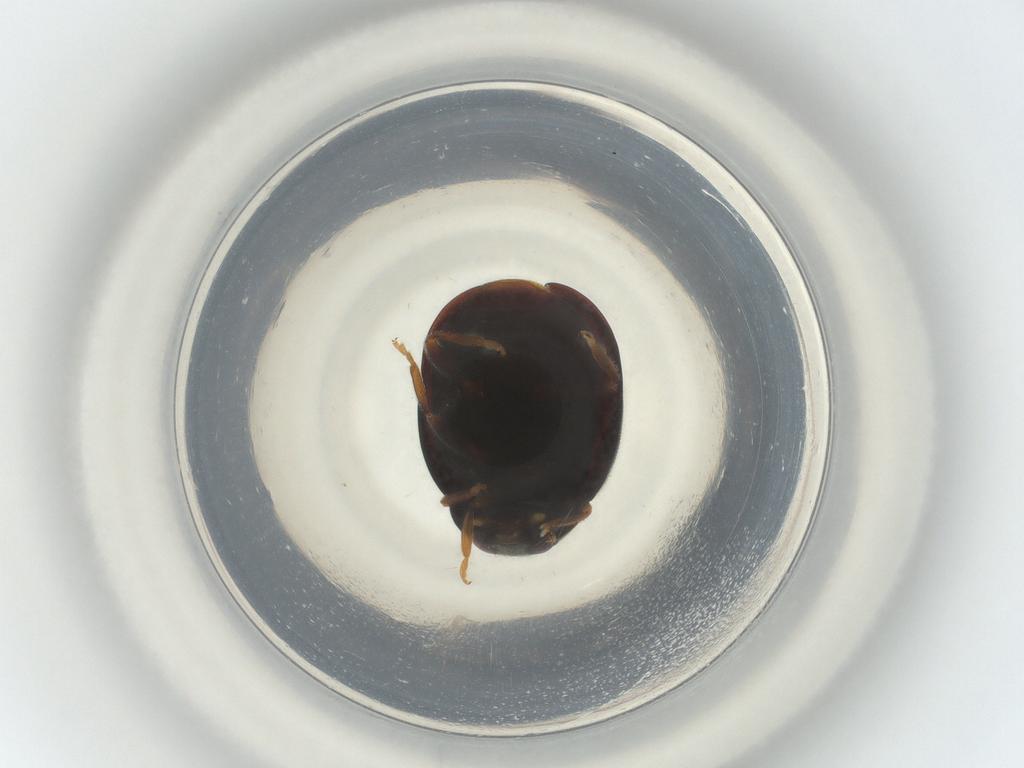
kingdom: Animalia
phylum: Arthropoda
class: Insecta
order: Coleoptera
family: Coccinellidae
